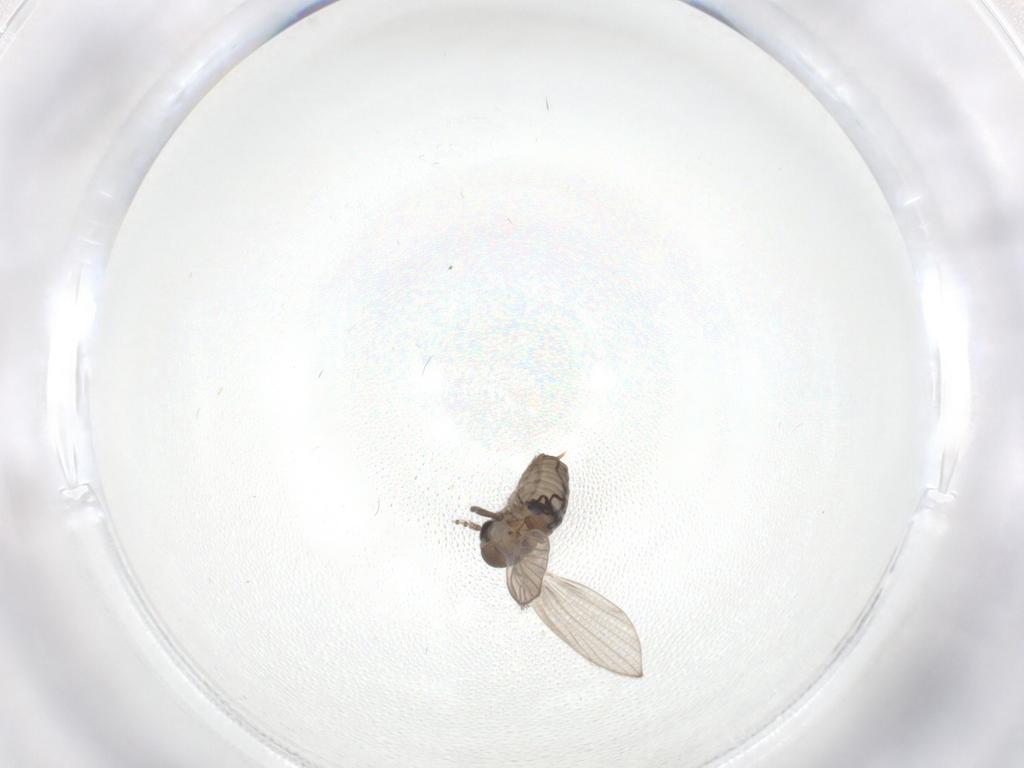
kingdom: Animalia
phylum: Arthropoda
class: Insecta
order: Diptera
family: Psychodidae
